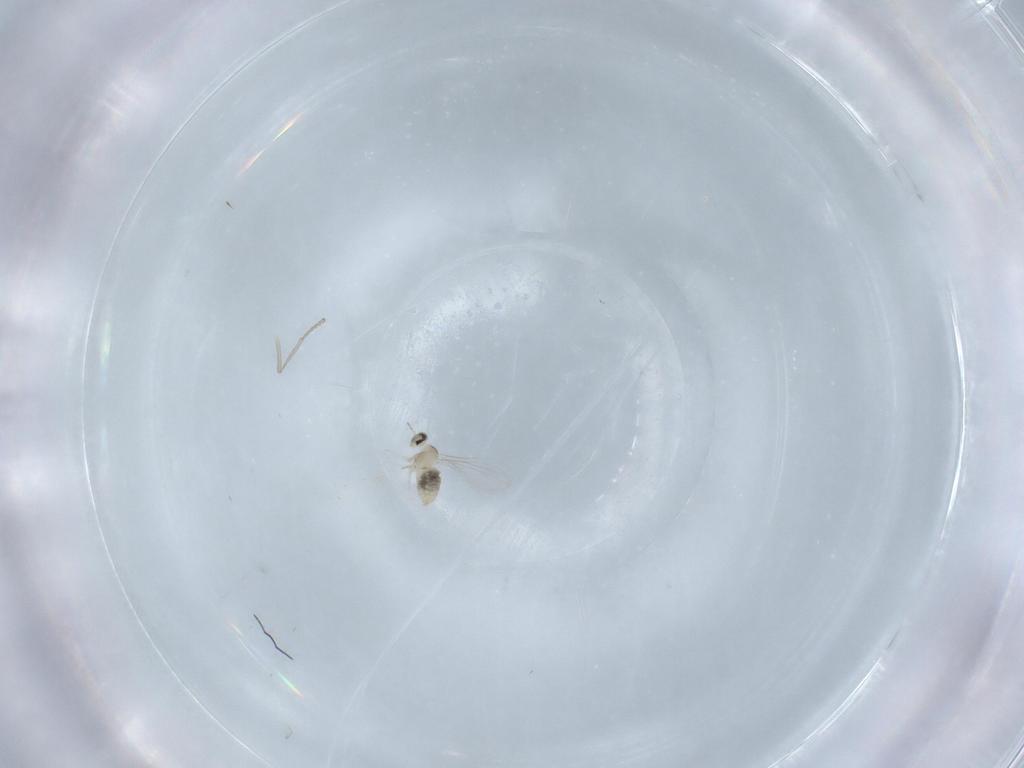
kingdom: Animalia
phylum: Arthropoda
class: Insecta
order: Diptera
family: Cecidomyiidae
